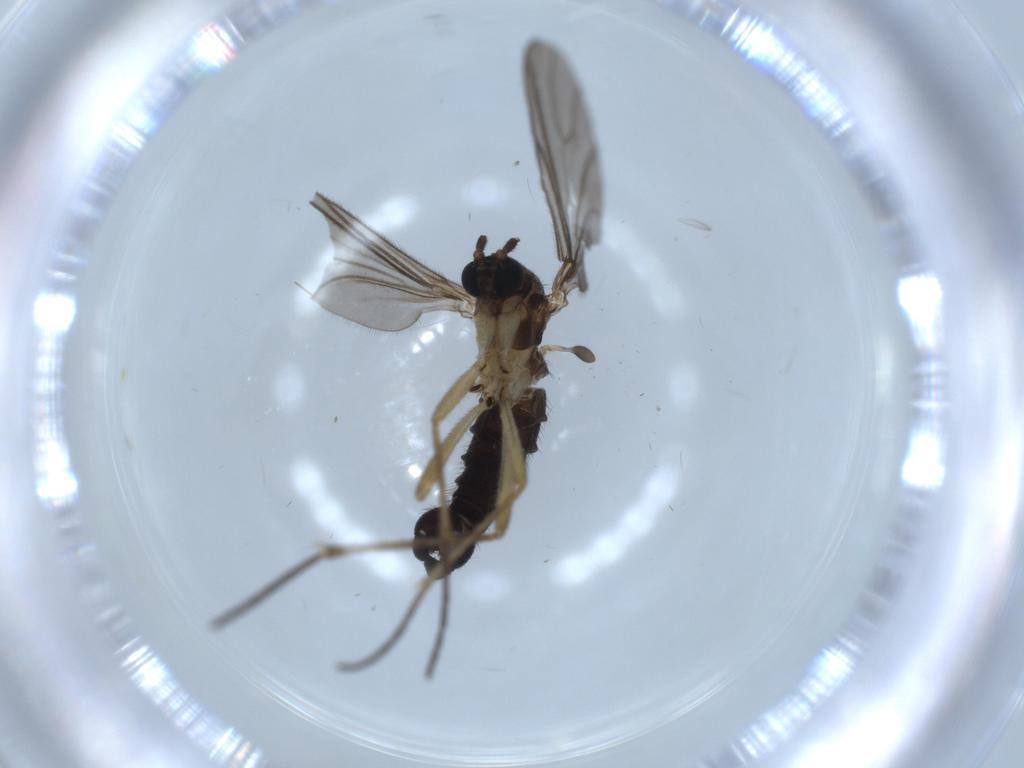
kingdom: Animalia
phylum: Arthropoda
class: Insecta
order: Diptera
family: Sciaridae
